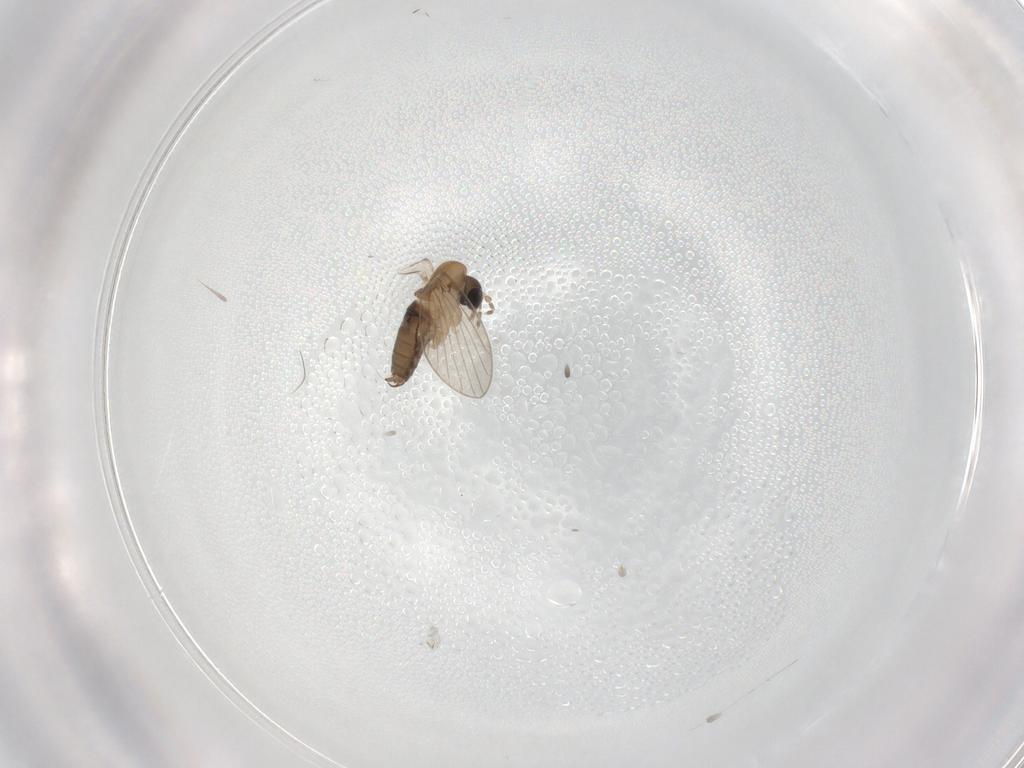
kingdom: Animalia
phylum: Arthropoda
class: Insecta
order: Diptera
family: Psychodidae
